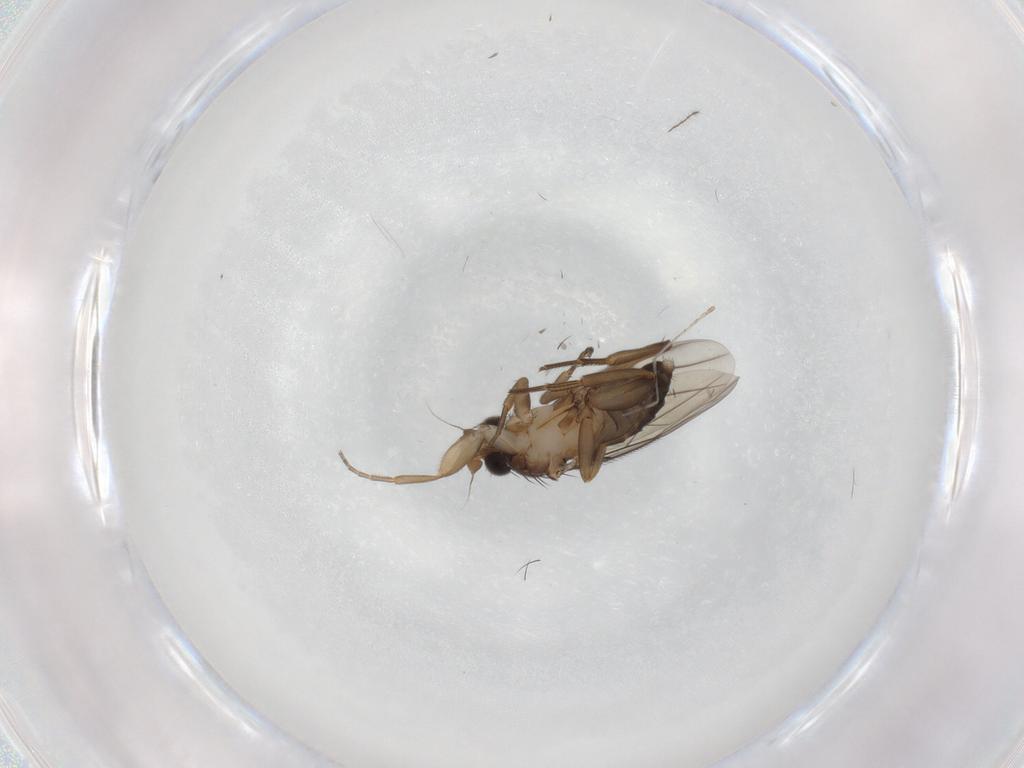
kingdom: Animalia
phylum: Arthropoda
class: Insecta
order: Diptera
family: Phoridae
